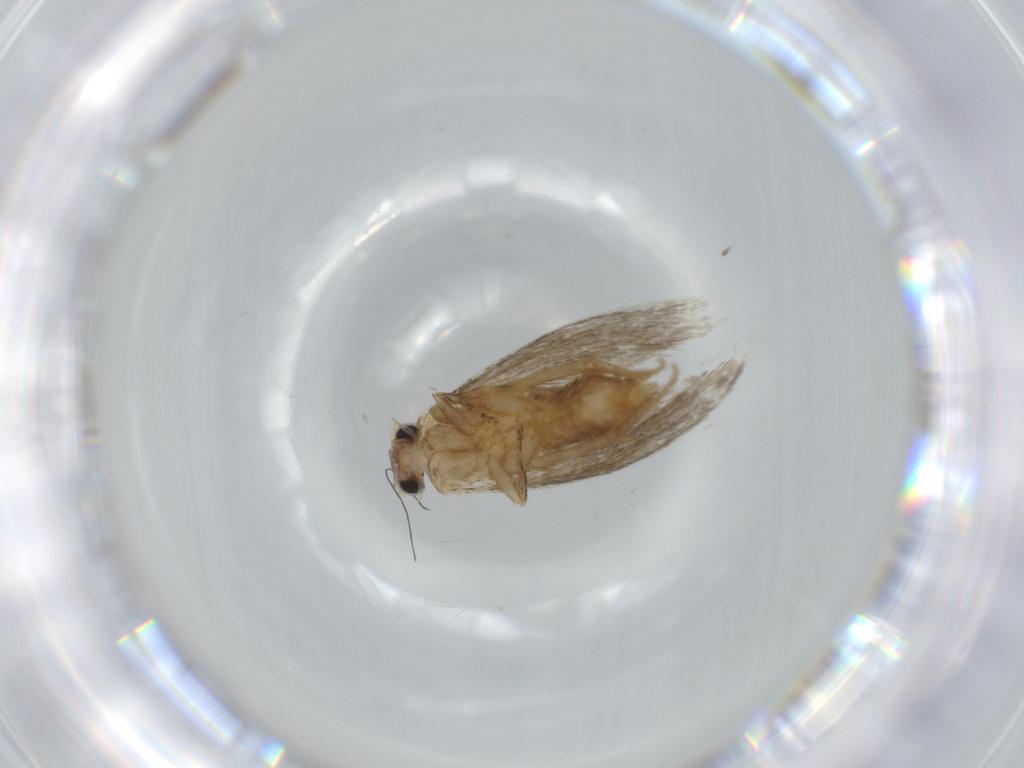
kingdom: Animalia
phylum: Arthropoda
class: Insecta
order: Lepidoptera
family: Tineidae
